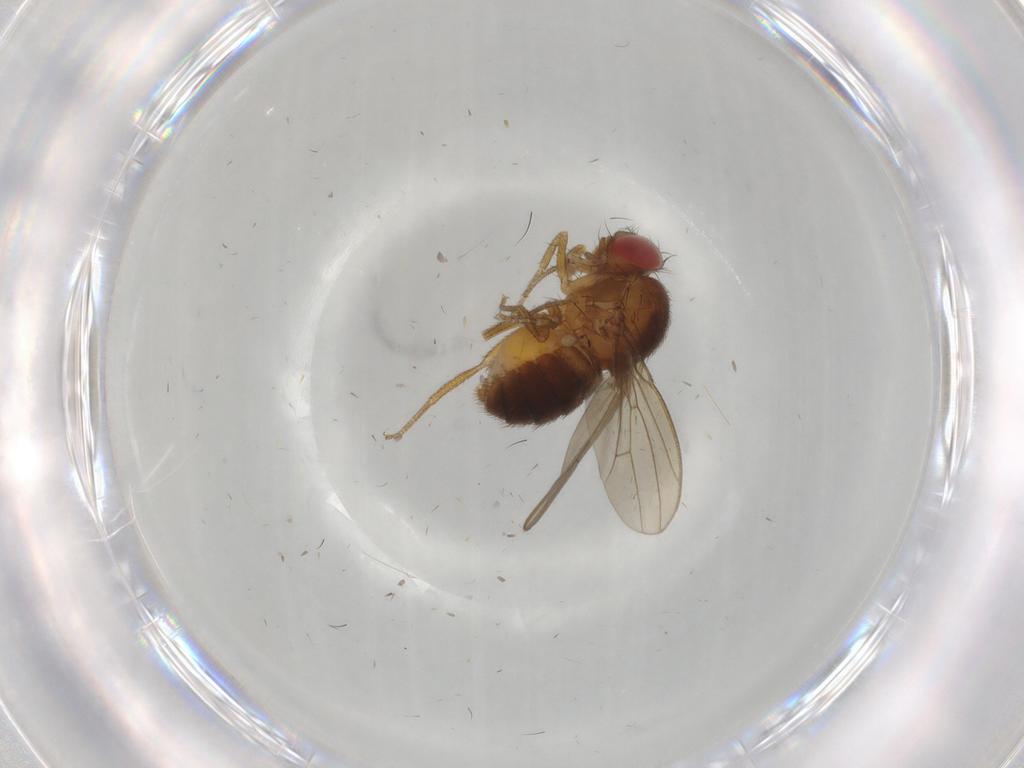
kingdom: Animalia
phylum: Arthropoda
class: Insecta
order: Diptera
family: Drosophilidae
